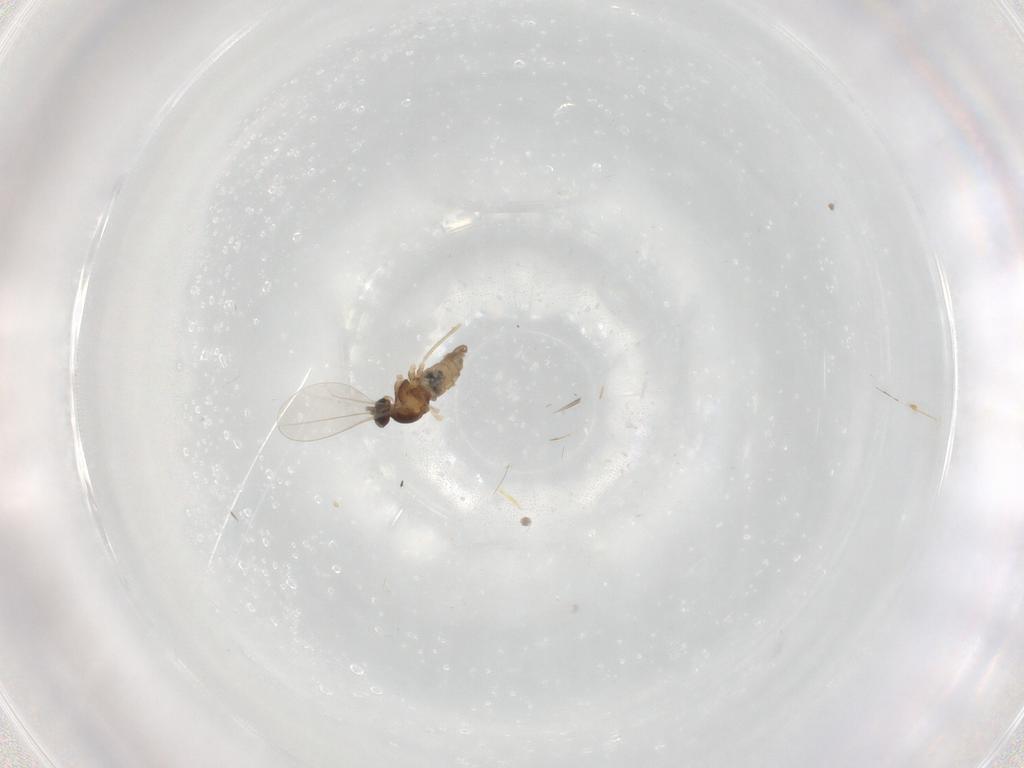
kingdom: Animalia
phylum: Arthropoda
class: Insecta
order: Diptera
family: Cecidomyiidae
